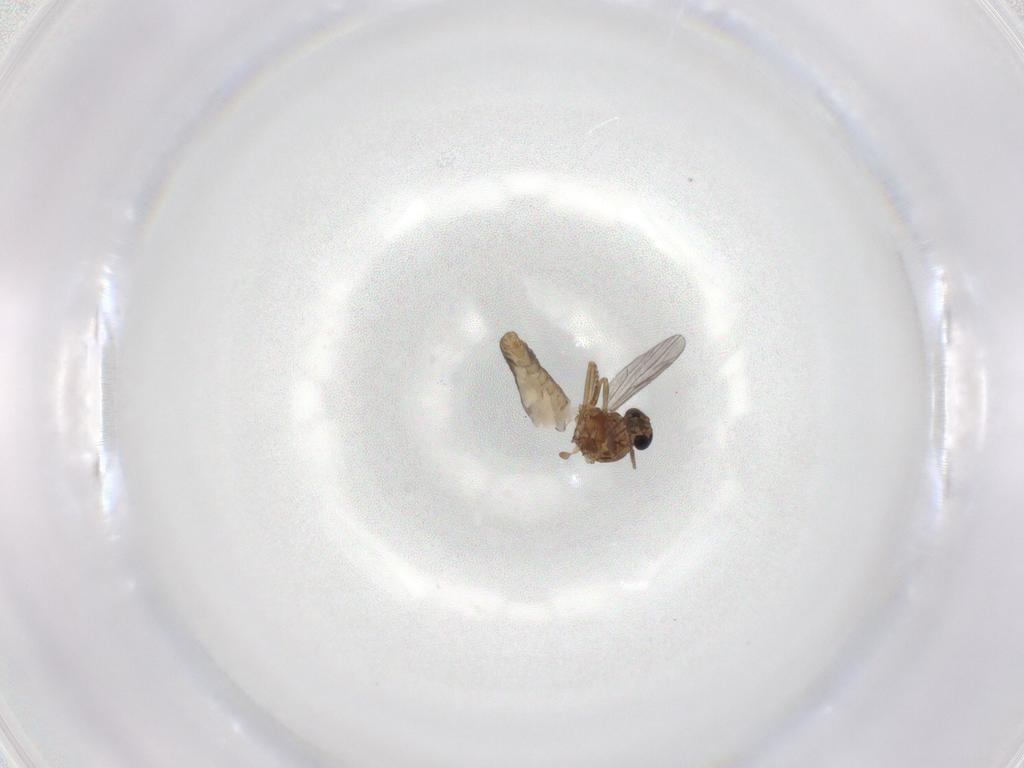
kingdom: Animalia
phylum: Arthropoda
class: Insecta
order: Diptera
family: Ceratopogonidae
